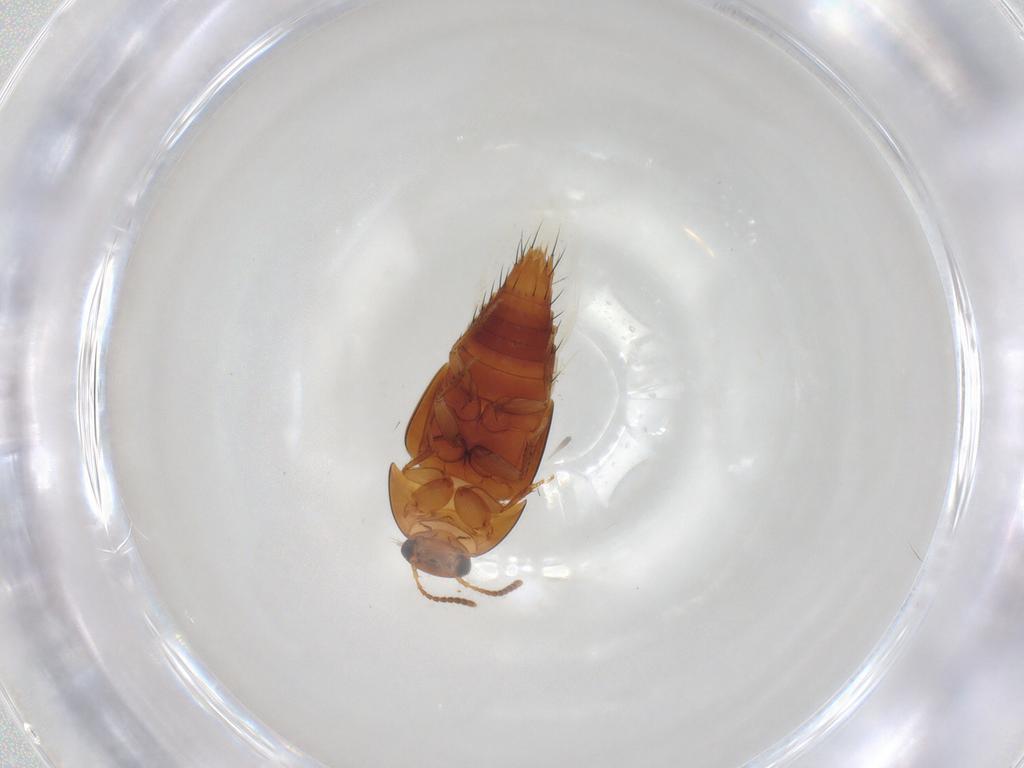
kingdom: Animalia
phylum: Arthropoda
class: Insecta
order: Coleoptera
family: Staphylinidae
